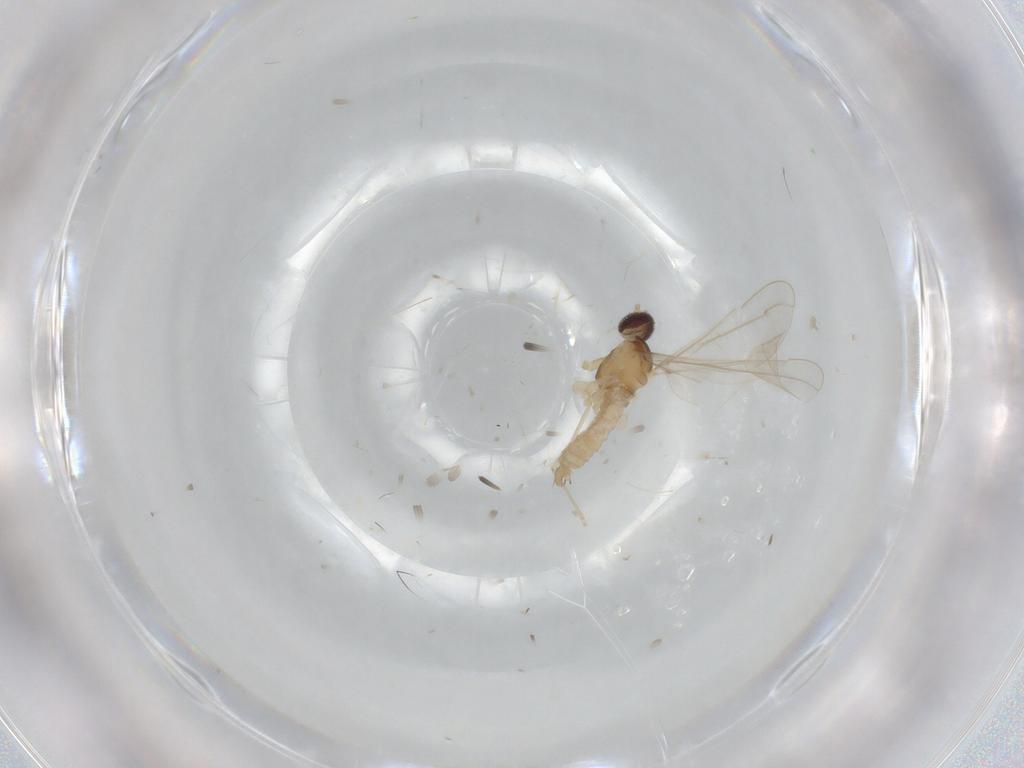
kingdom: Animalia
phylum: Arthropoda
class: Insecta
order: Diptera
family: Cecidomyiidae
